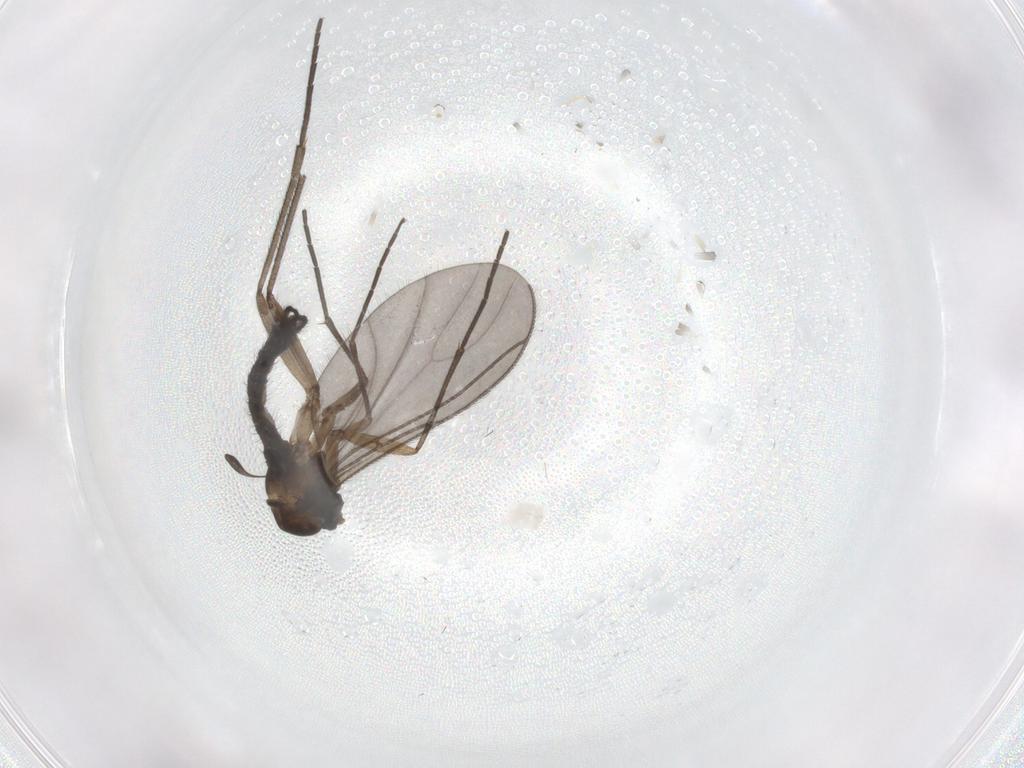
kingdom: Animalia
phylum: Arthropoda
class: Insecta
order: Diptera
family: Sciaridae
